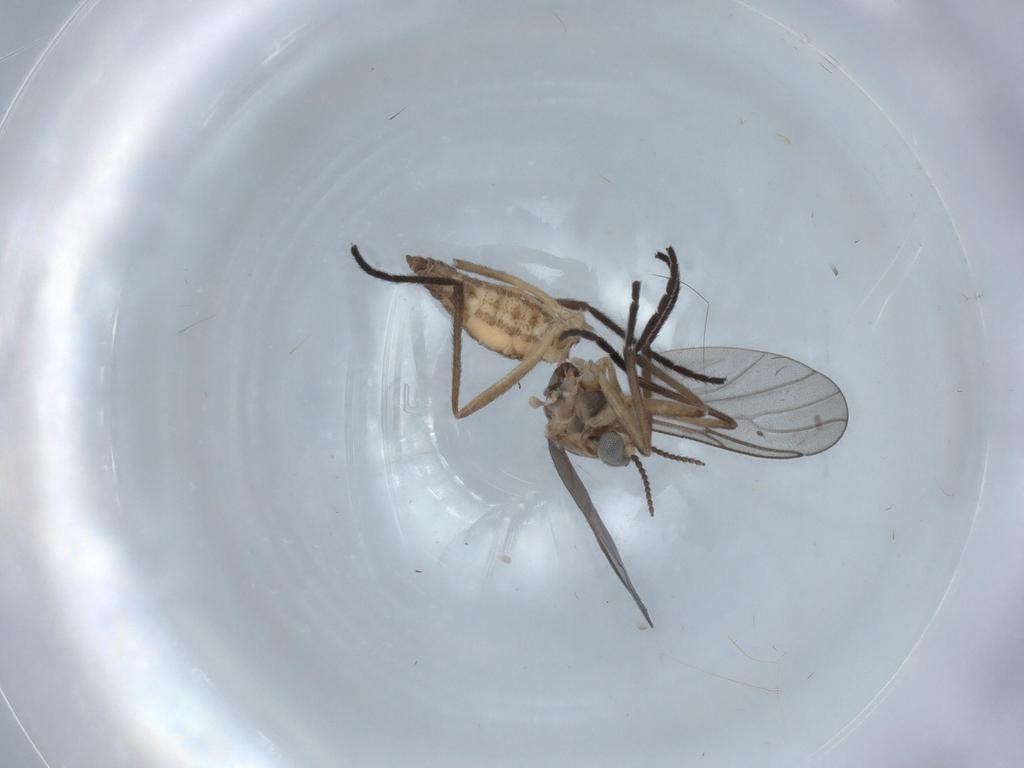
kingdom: Animalia
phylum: Arthropoda
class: Insecta
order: Diptera
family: Cecidomyiidae
